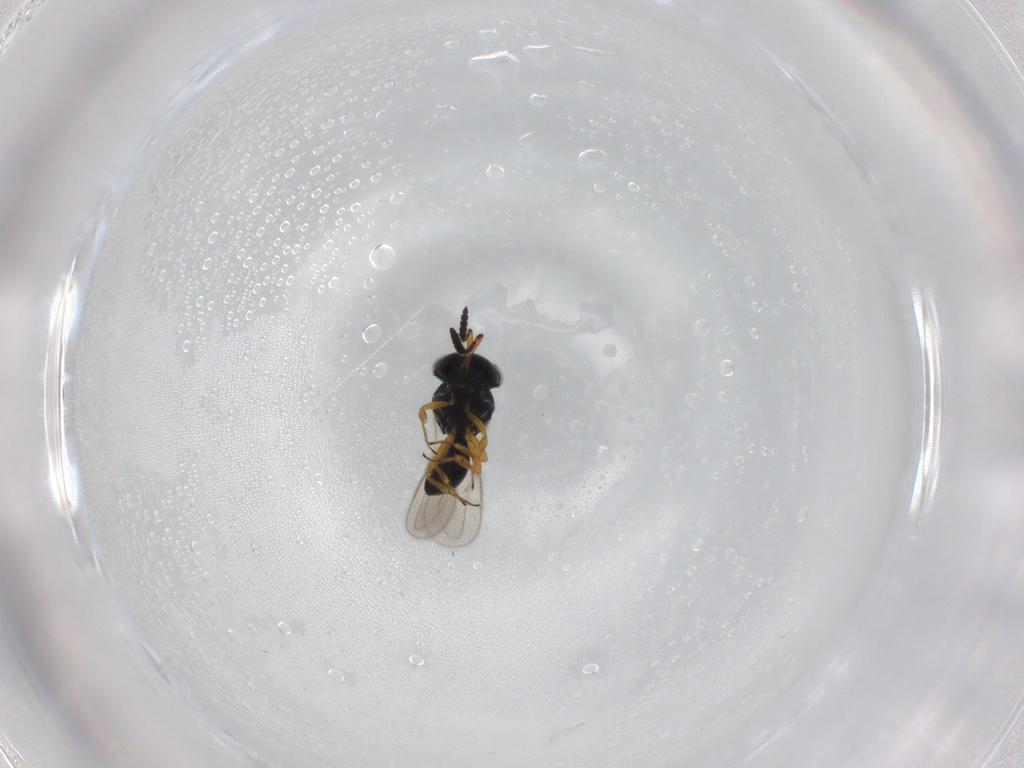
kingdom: Animalia
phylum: Arthropoda
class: Insecta
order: Hymenoptera
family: Scelionidae
